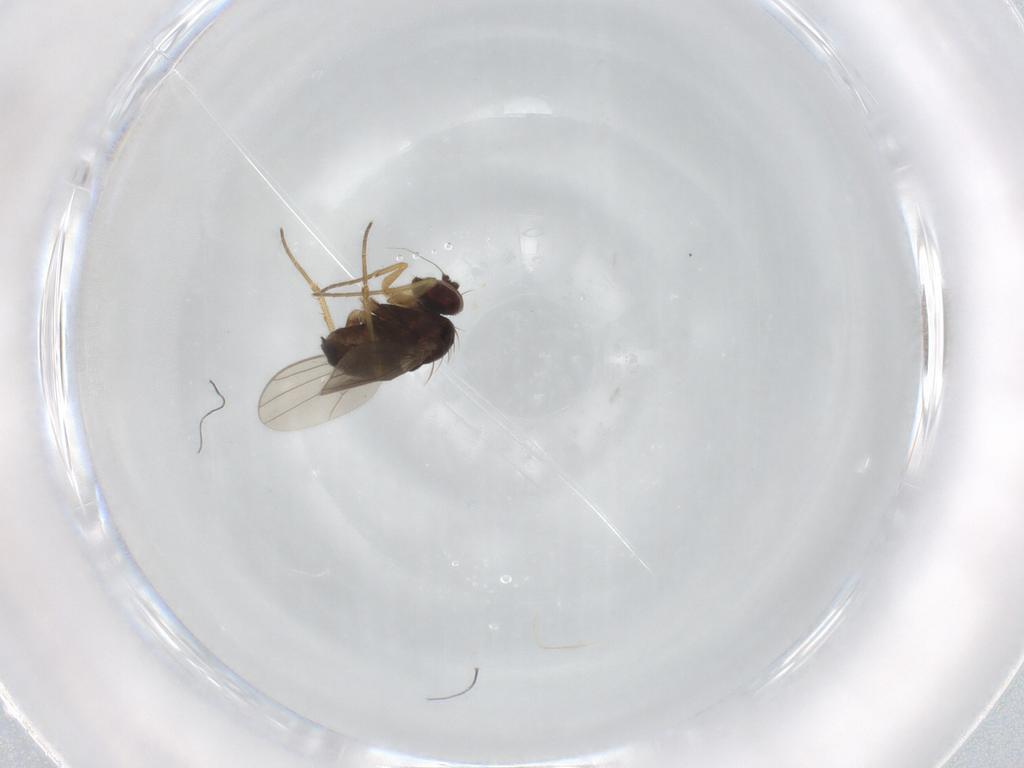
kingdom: Animalia
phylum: Arthropoda
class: Insecta
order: Diptera
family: Dolichopodidae
